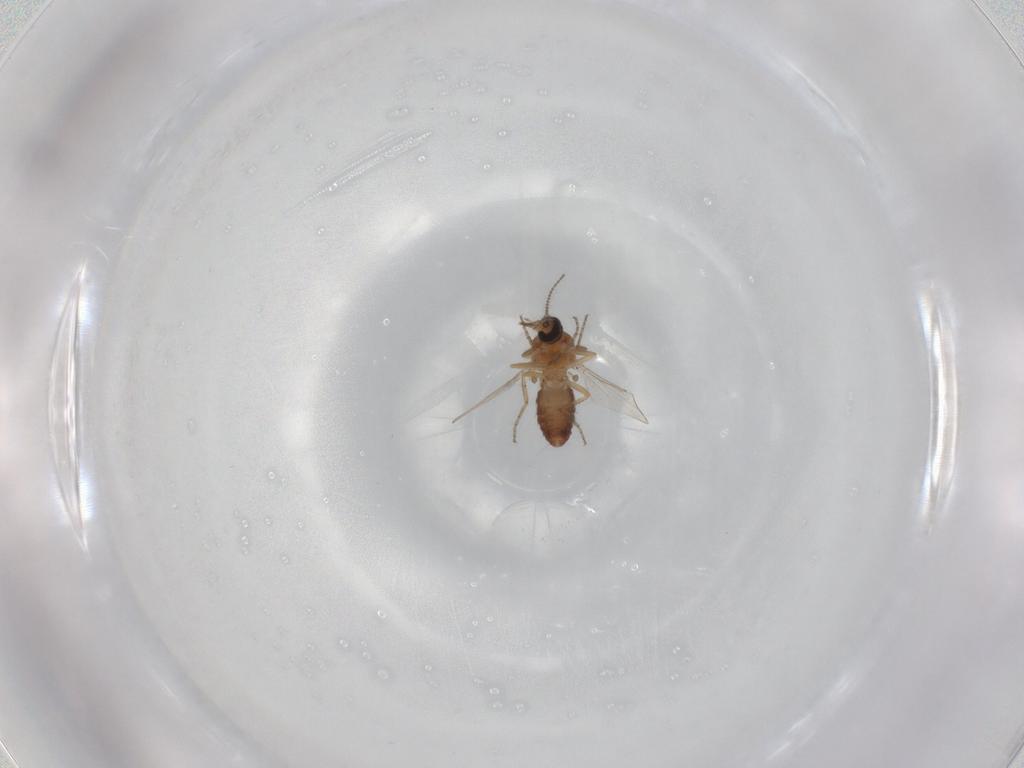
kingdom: Animalia
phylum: Arthropoda
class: Insecta
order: Diptera
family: Ceratopogonidae
